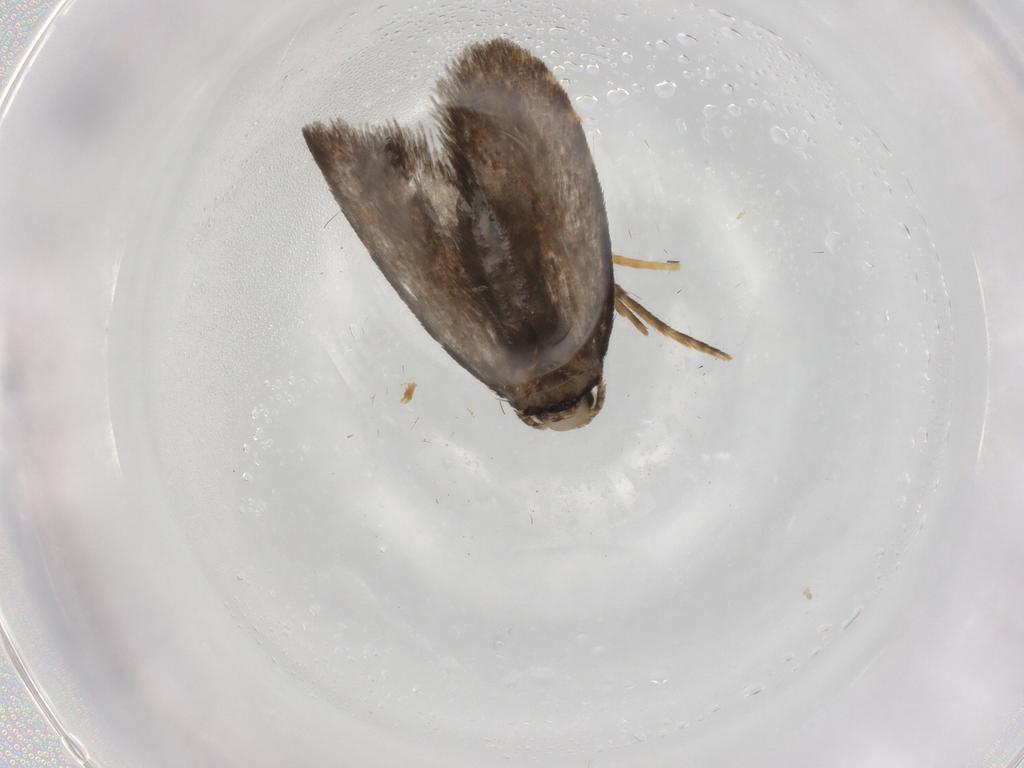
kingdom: Animalia
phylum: Arthropoda
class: Insecta
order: Lepidoptera
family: Psychidae
